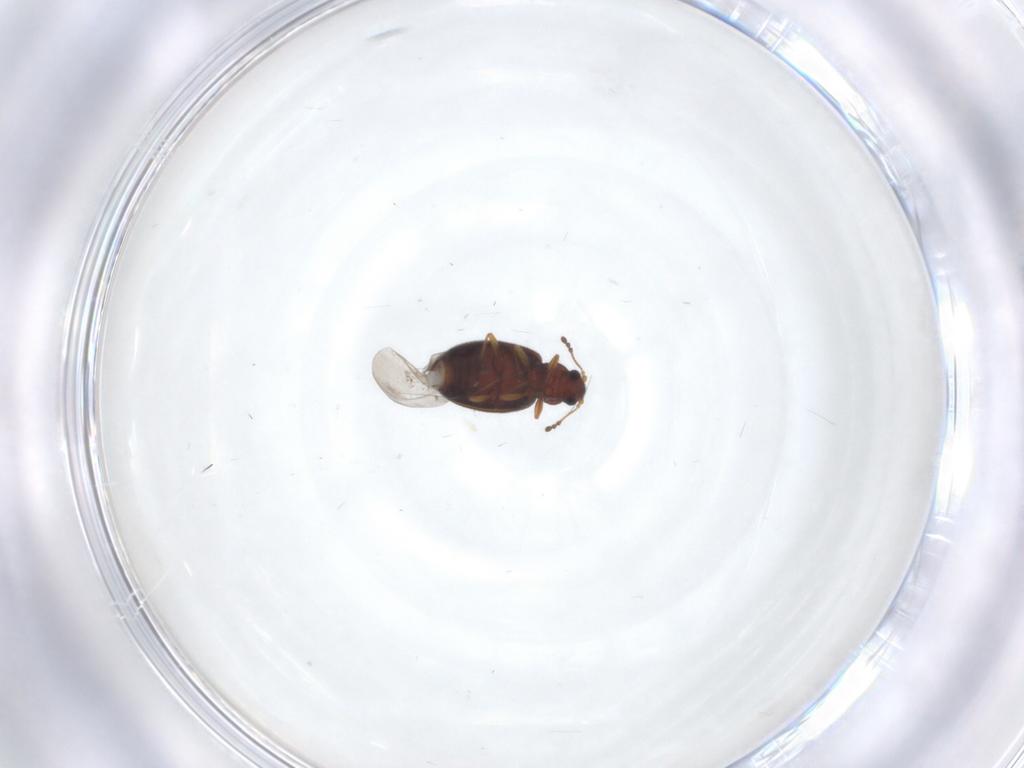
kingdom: Animalia
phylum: Arthropoda
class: Insecta
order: Coleoptera
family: Latridiidae
